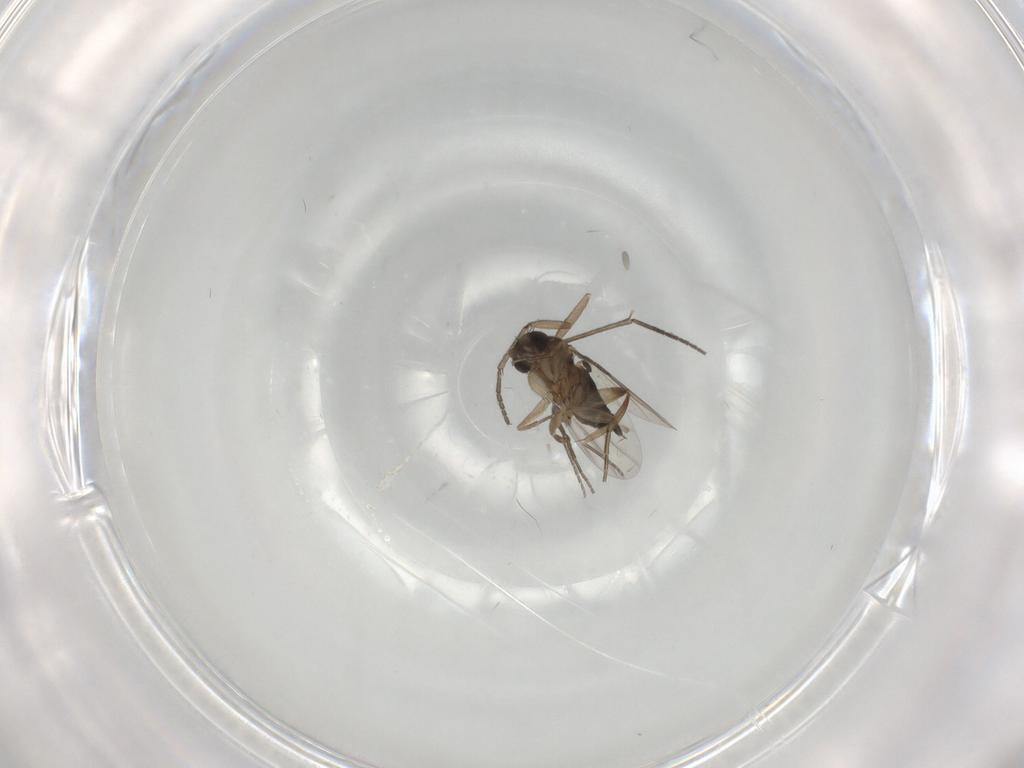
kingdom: Animalia
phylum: Arthropoda
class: Insecta
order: Diptera
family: Phoridae
